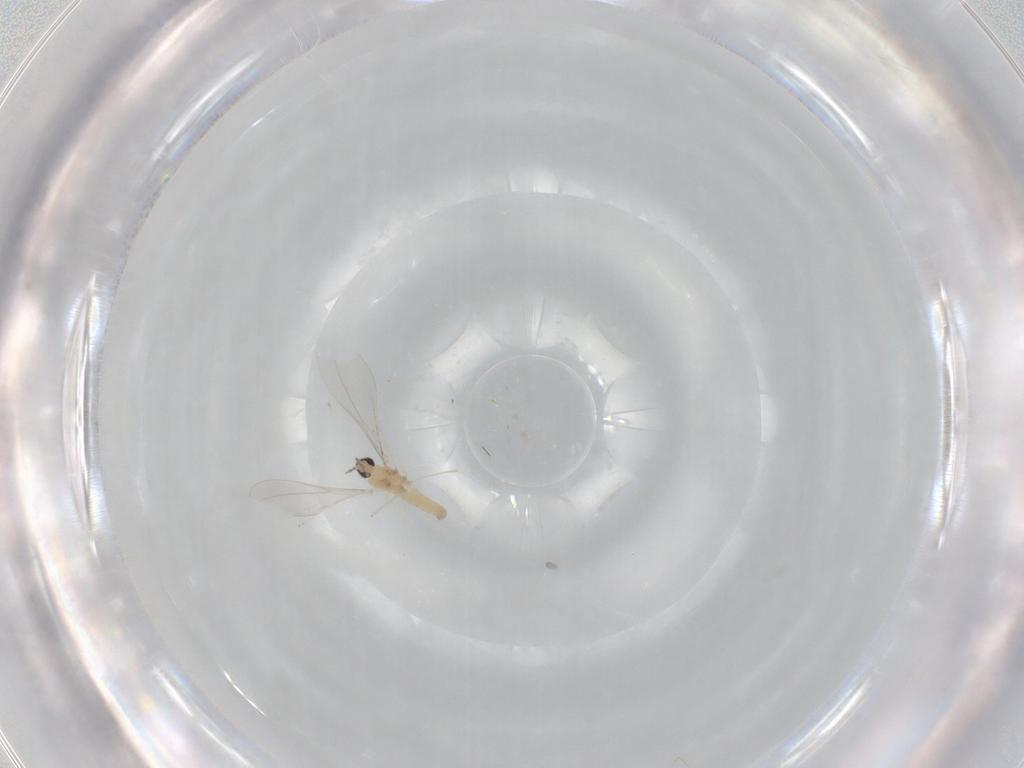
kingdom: Animalia
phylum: Arthropoda
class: Insecta
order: Diptera
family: Cecidomyiidae
